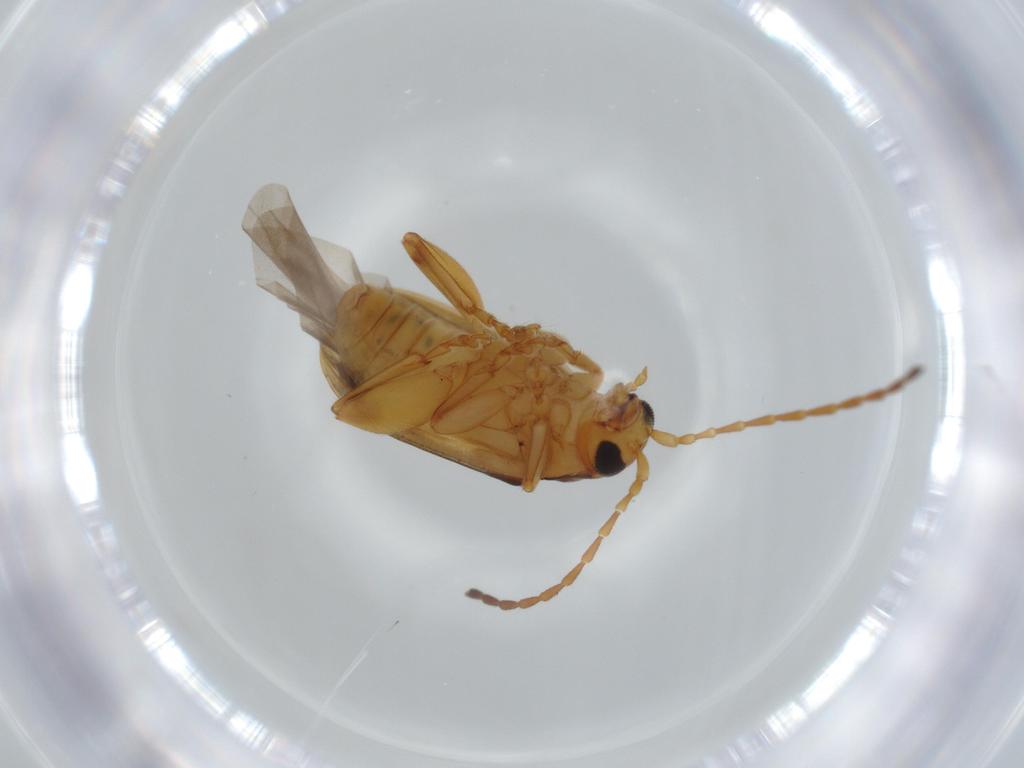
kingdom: Animalia
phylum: Arthropoda
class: Insecta
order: Coleoptera
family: Chrysomelidae
